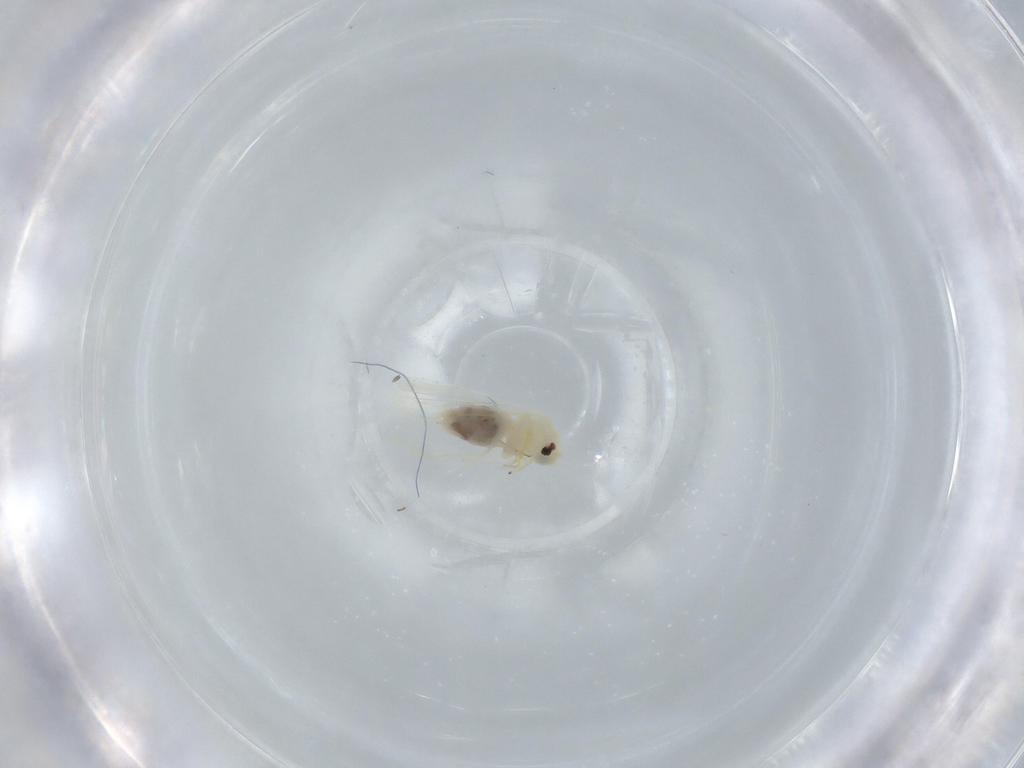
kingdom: Animalia
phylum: Arthropoda
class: Insecta
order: Hemiptera
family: Aleyrodidae
